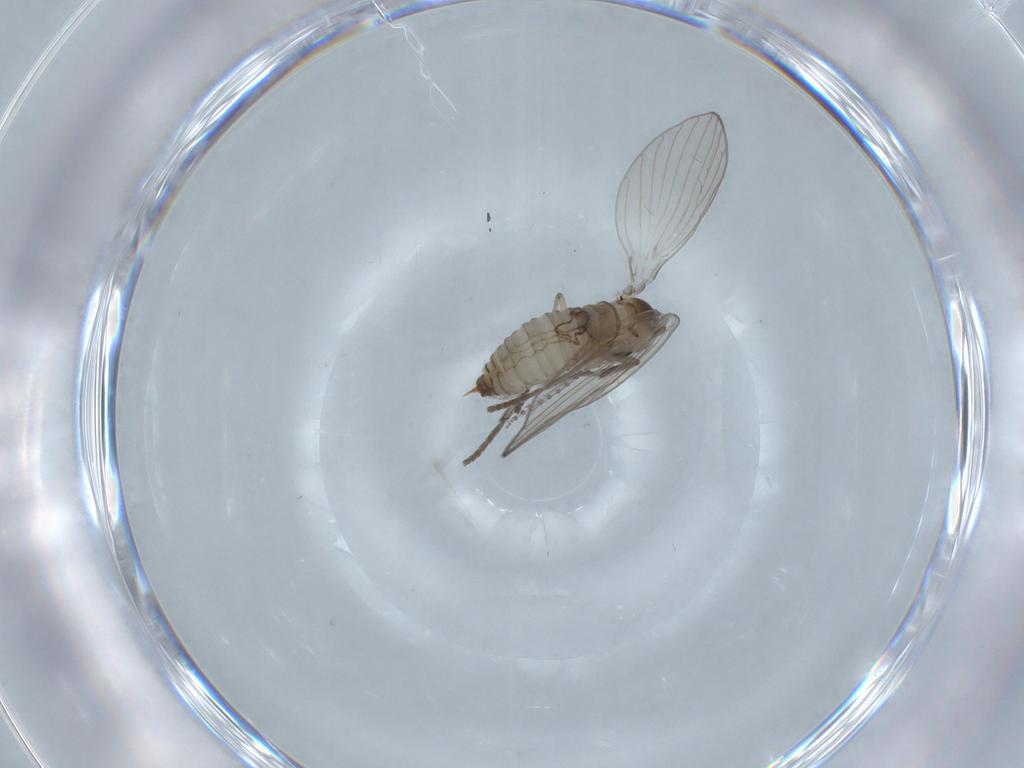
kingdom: Animalia
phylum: Arthropoda
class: Insecta
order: Diptera
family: Psychodidae
